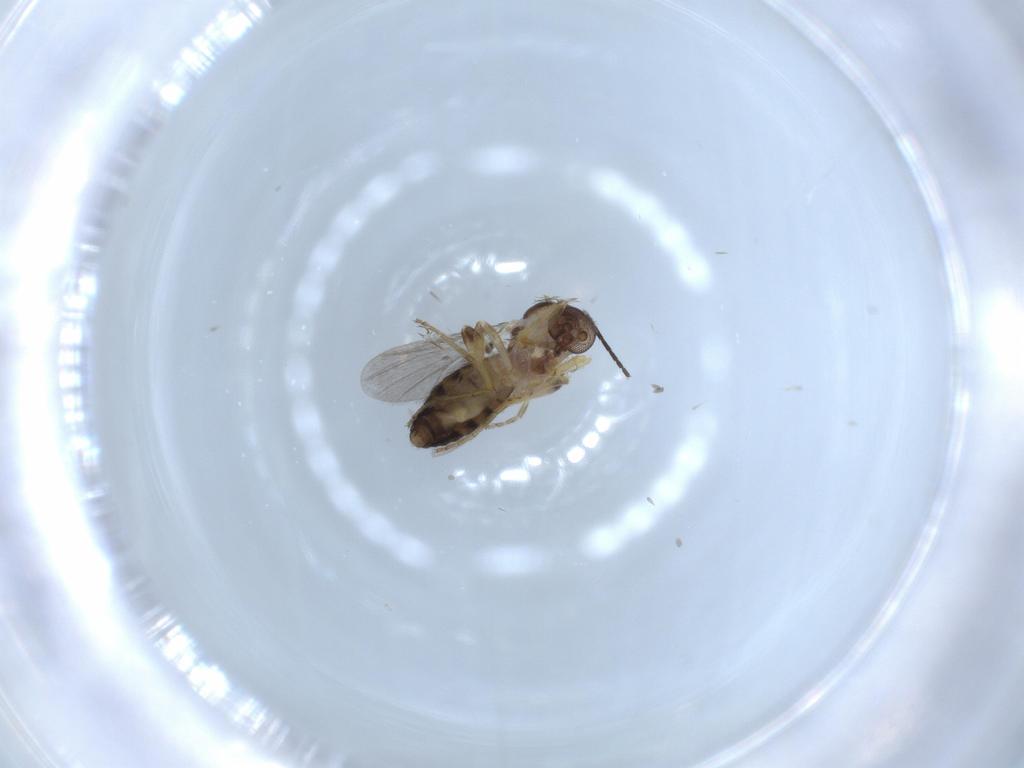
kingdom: Animalia
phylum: Arthropoda
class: Insecta
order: Diptera
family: Ceratopogonidae
